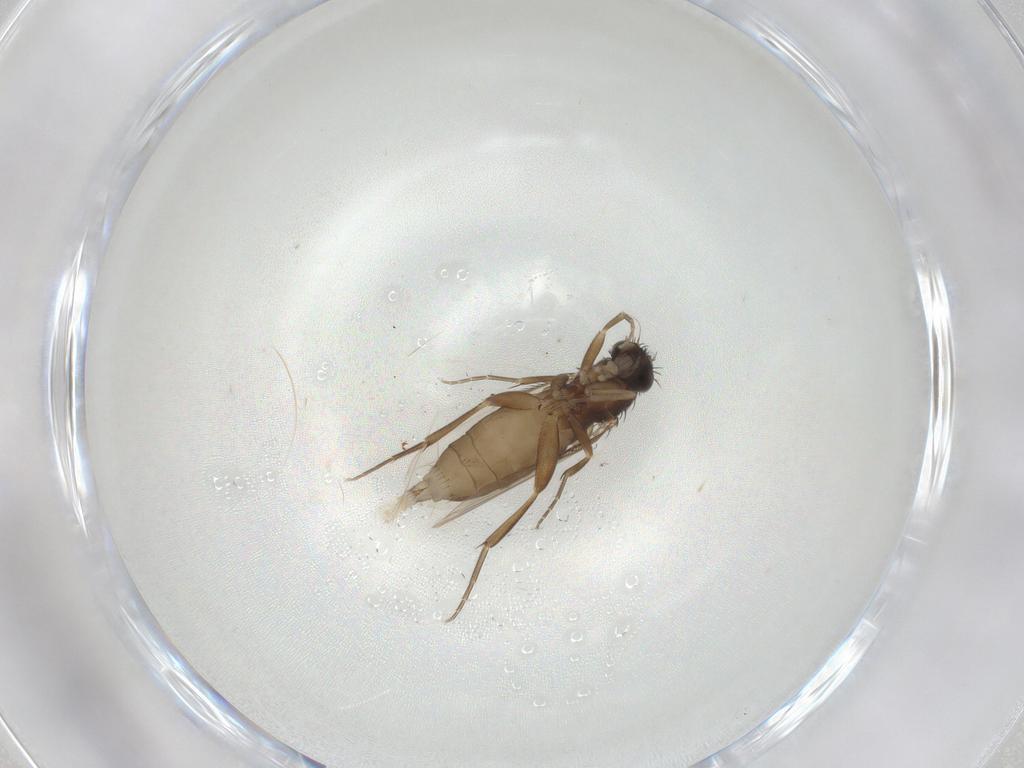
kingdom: Animalia
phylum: Arthropoda
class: Insecta
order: Diptera
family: Phoridae
